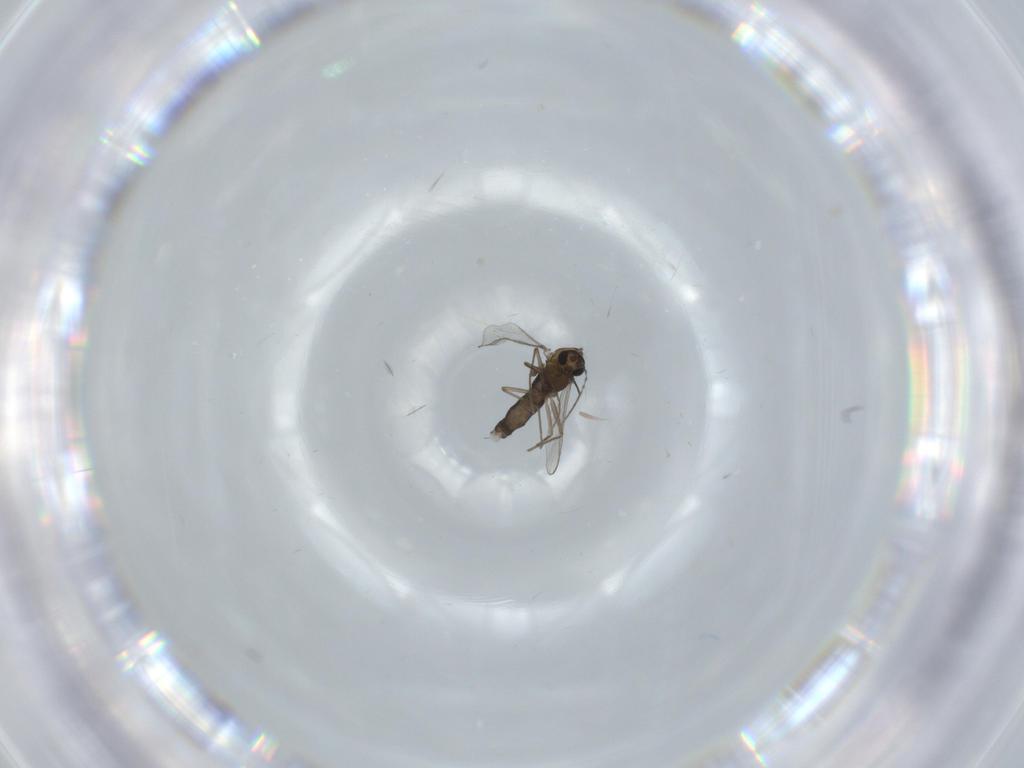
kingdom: Animalia
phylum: Arthropoda
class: Insecta
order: Diptera
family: Chironomidae
